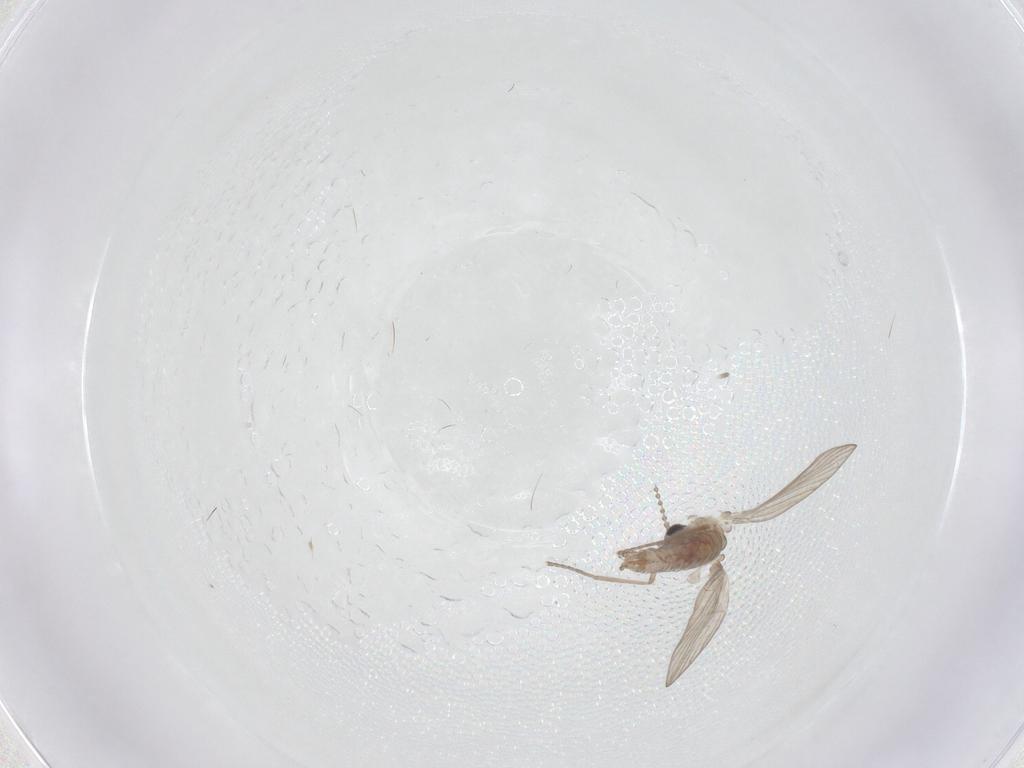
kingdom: Animalia
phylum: Arthropoda
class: Insecta
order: Diptera
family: Psychodidae
